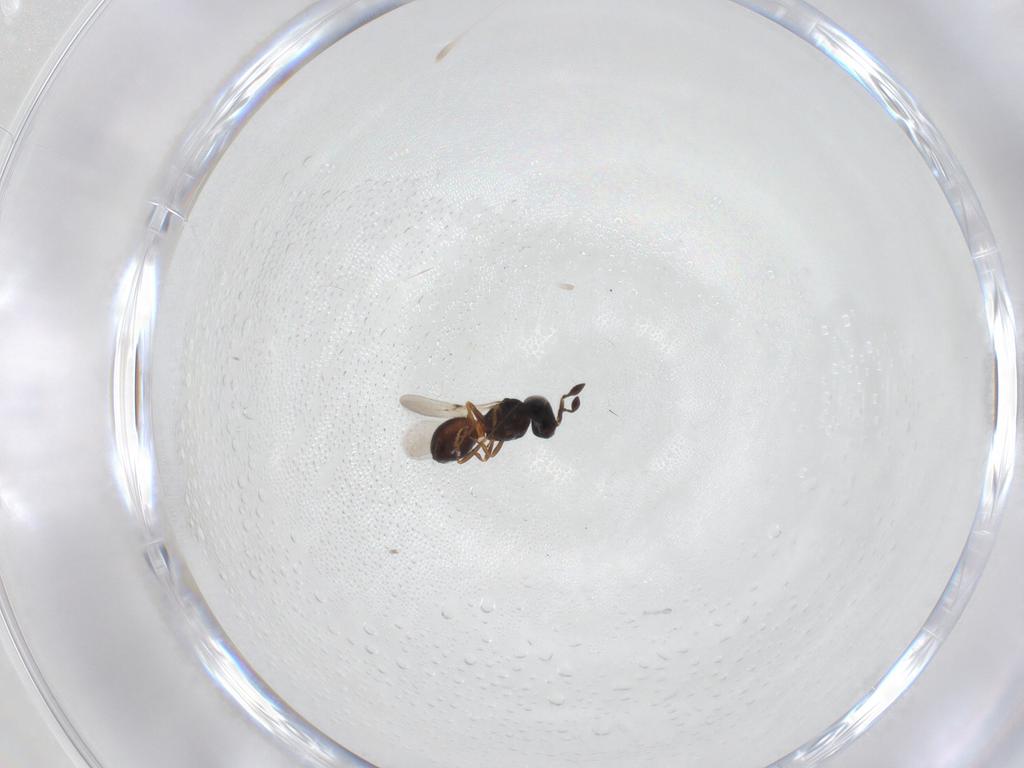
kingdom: Animalia
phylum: Arthropoda
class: Arachnida
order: Araneae
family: Pholcidae
